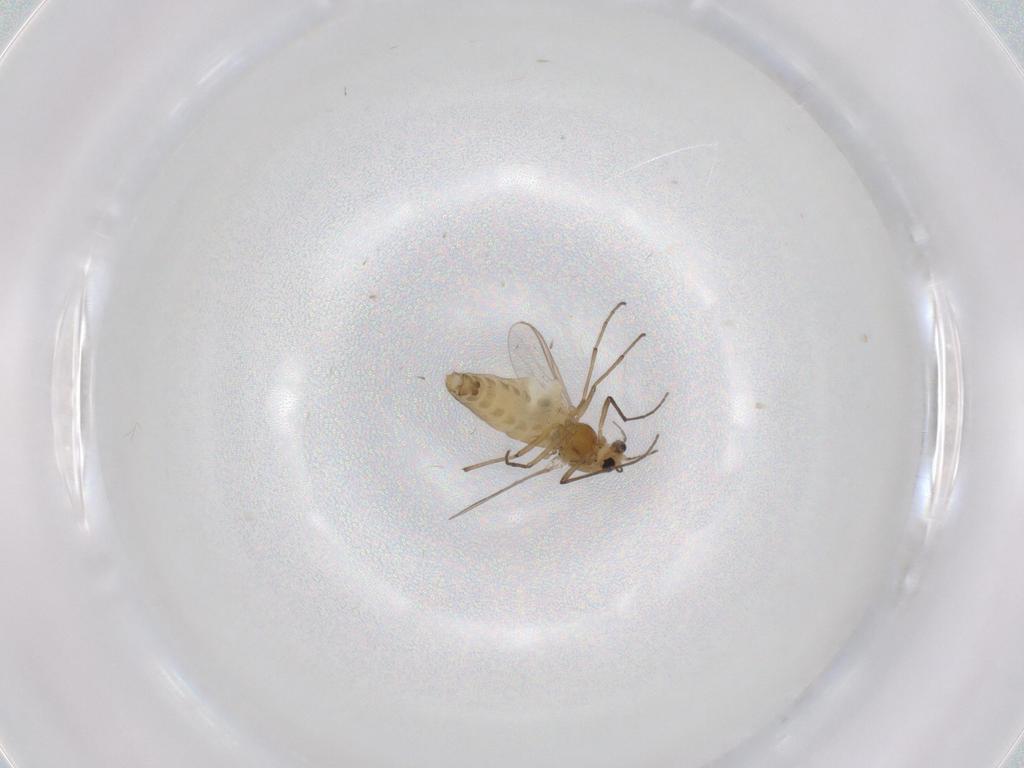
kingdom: Animalia
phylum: Arthropoda
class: Insecta
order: Diptera
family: Chironomidae
